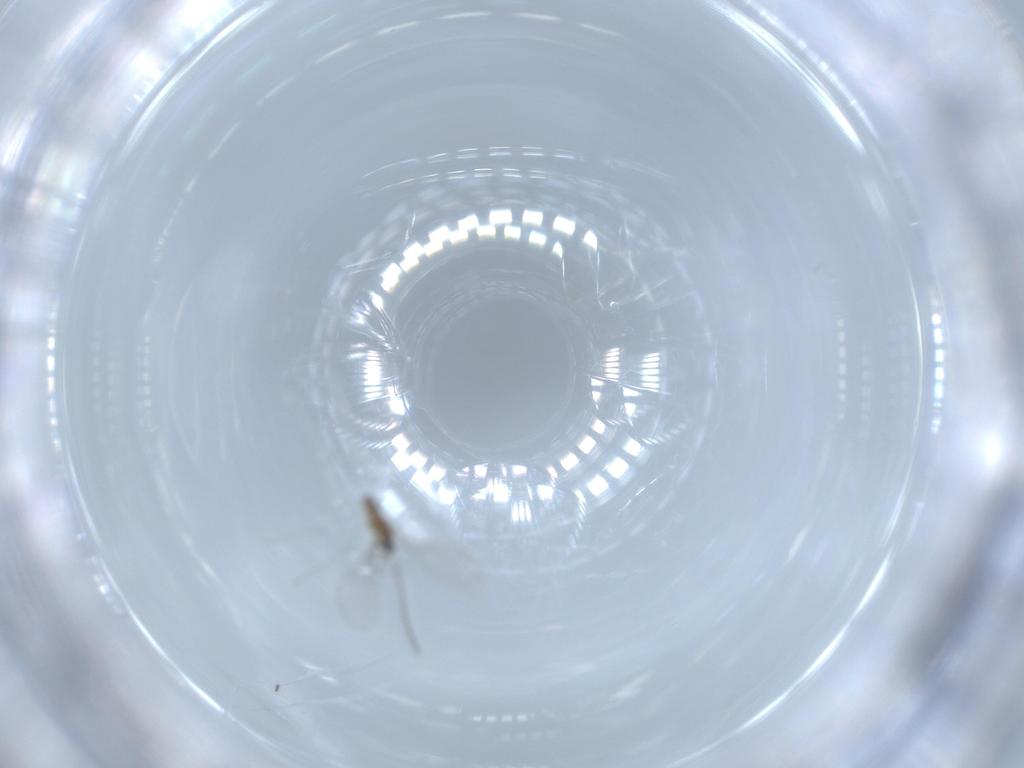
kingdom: Animalia
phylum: Arthropoda
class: Insecta
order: Diptera
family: Cecidomyiidae
